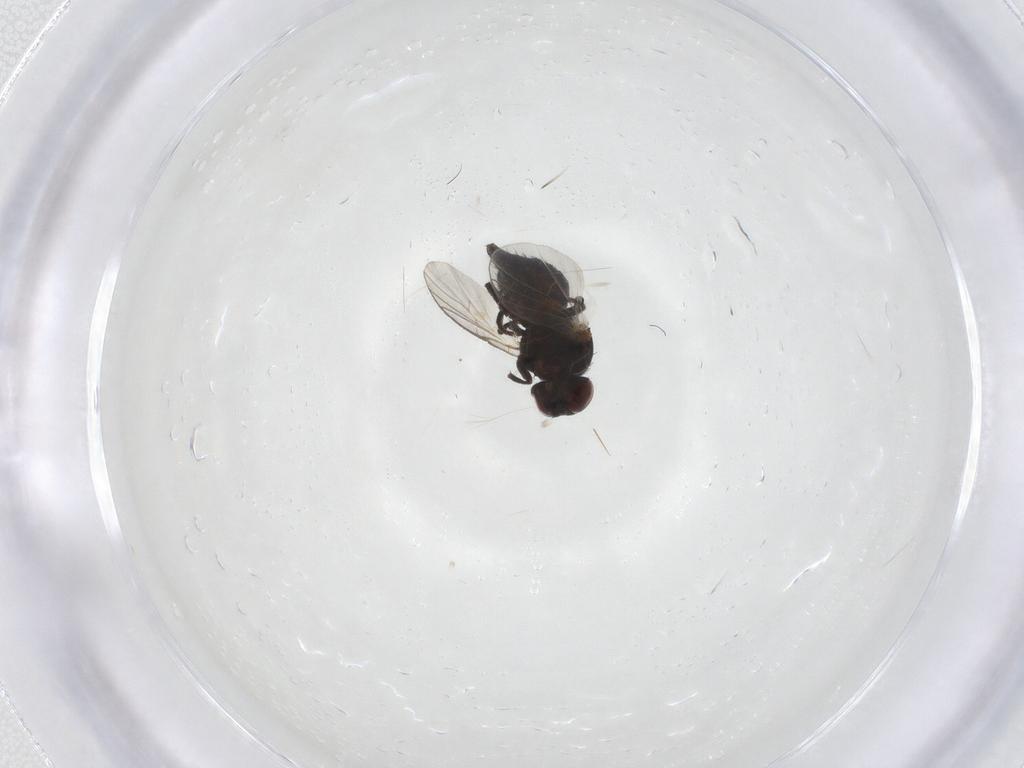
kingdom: Animalia
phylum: Arthropoda
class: Insecta
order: Diptera
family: Agromyzidae
